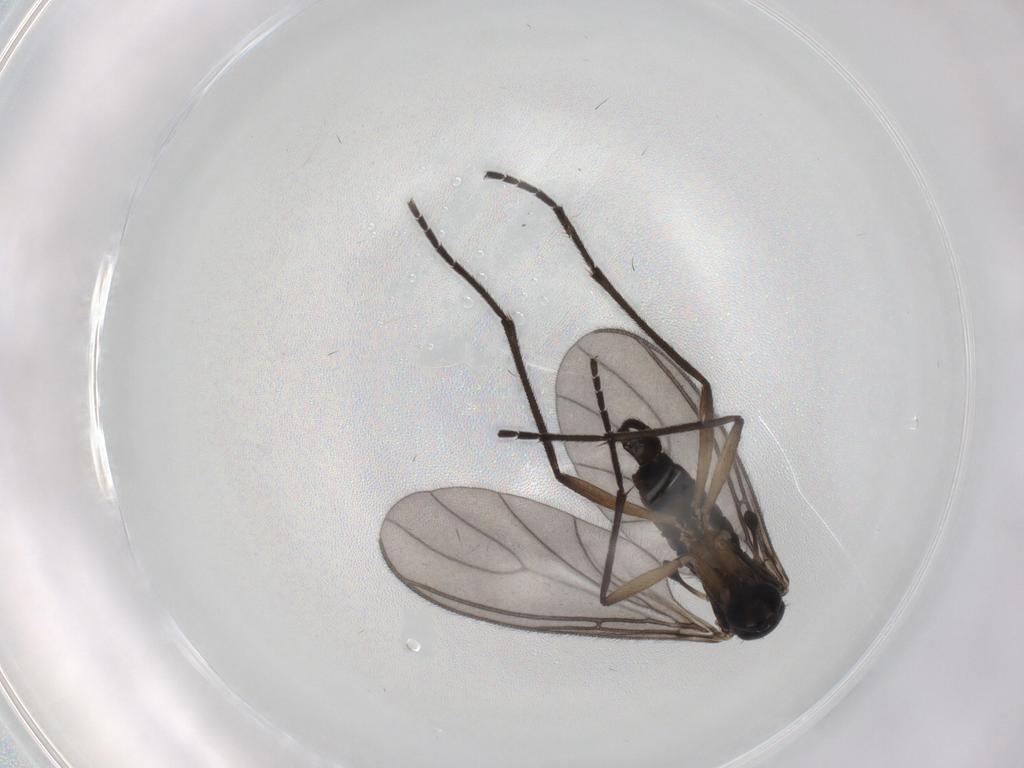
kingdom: Animalia
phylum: Arthropoda
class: Insecta
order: Diptera
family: Sciaridae
